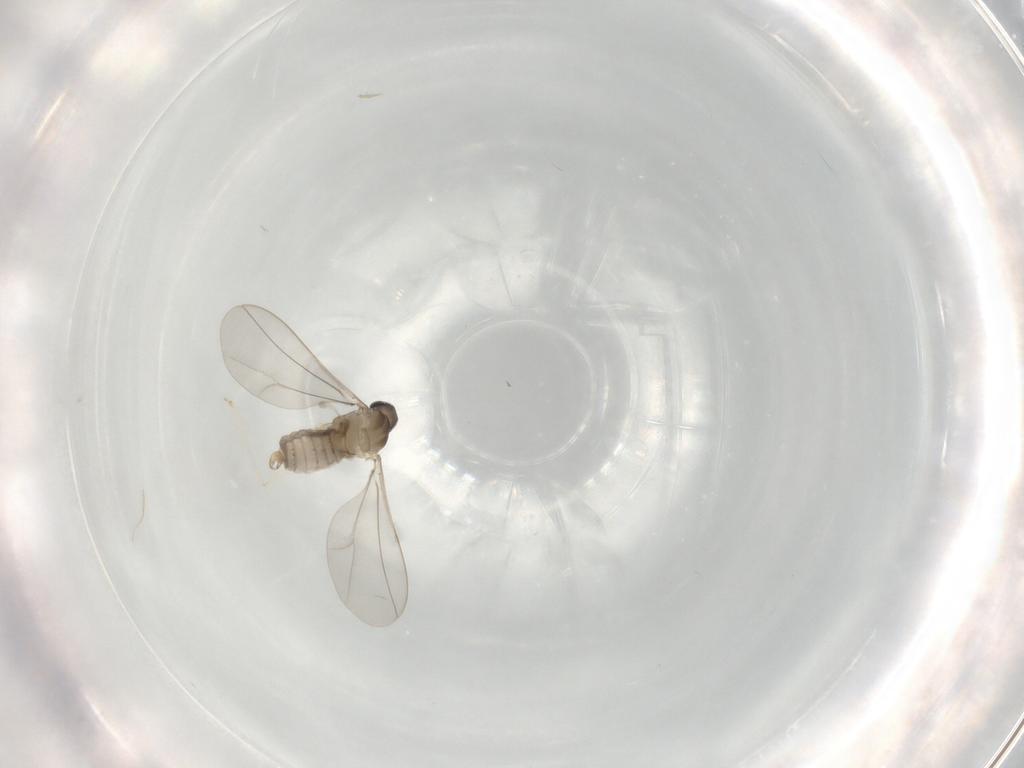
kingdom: Animalia
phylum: Arthropoda
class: Insecta
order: Diptera
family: Cecidomyiidae
